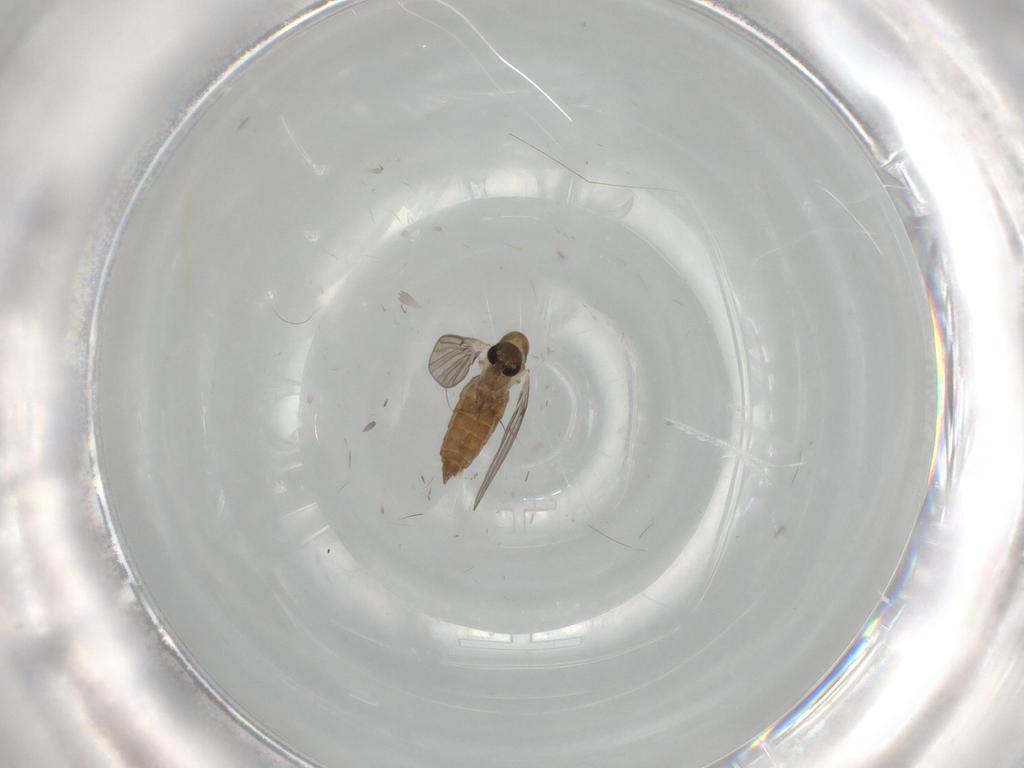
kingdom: Animalia
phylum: Arthropoda
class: Insecta
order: Diptera
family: Psychodidae
